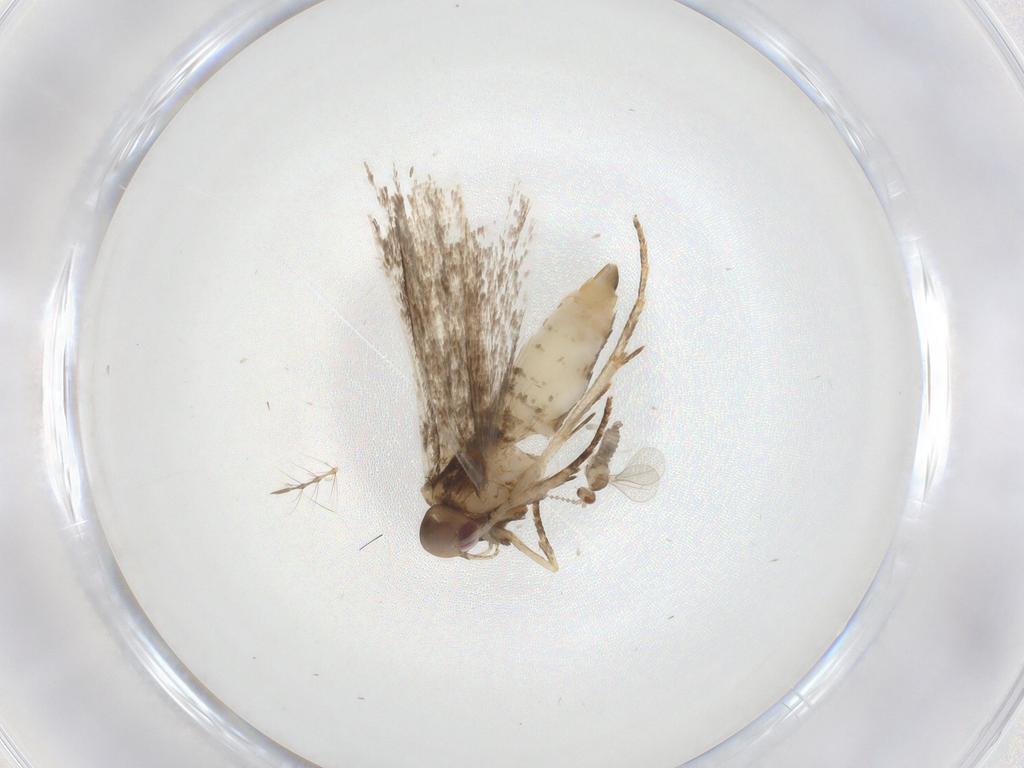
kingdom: Animalia
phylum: Arthropoda
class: Insecta
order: Lepidoptera
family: Gelechiidae
